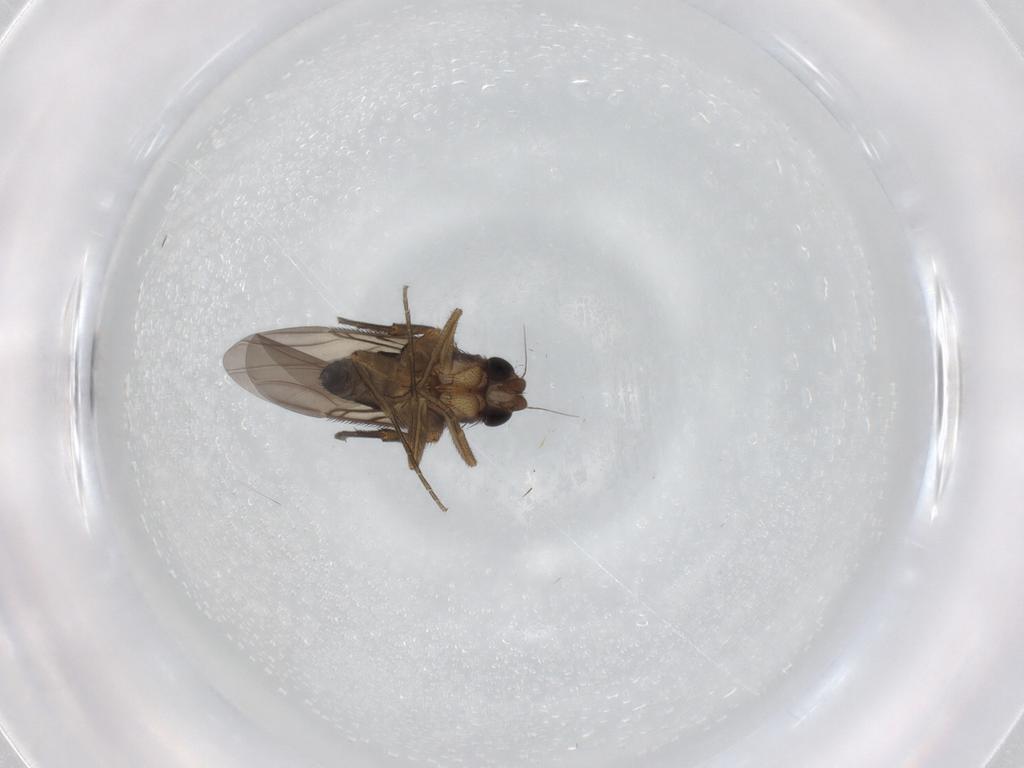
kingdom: Animalia
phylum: Arthropoda
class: Insecta
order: Diptera
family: Phoridae
